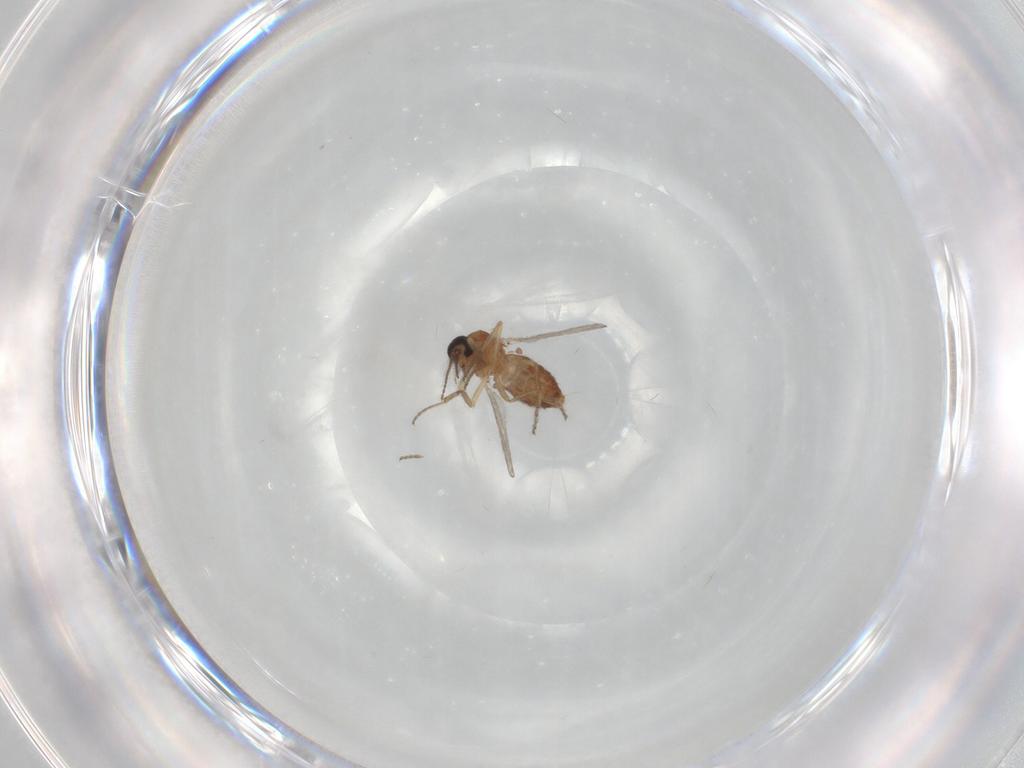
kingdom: Animalia
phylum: Arthropoda
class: Insecta
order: Diptera
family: Ceratopogonidae
